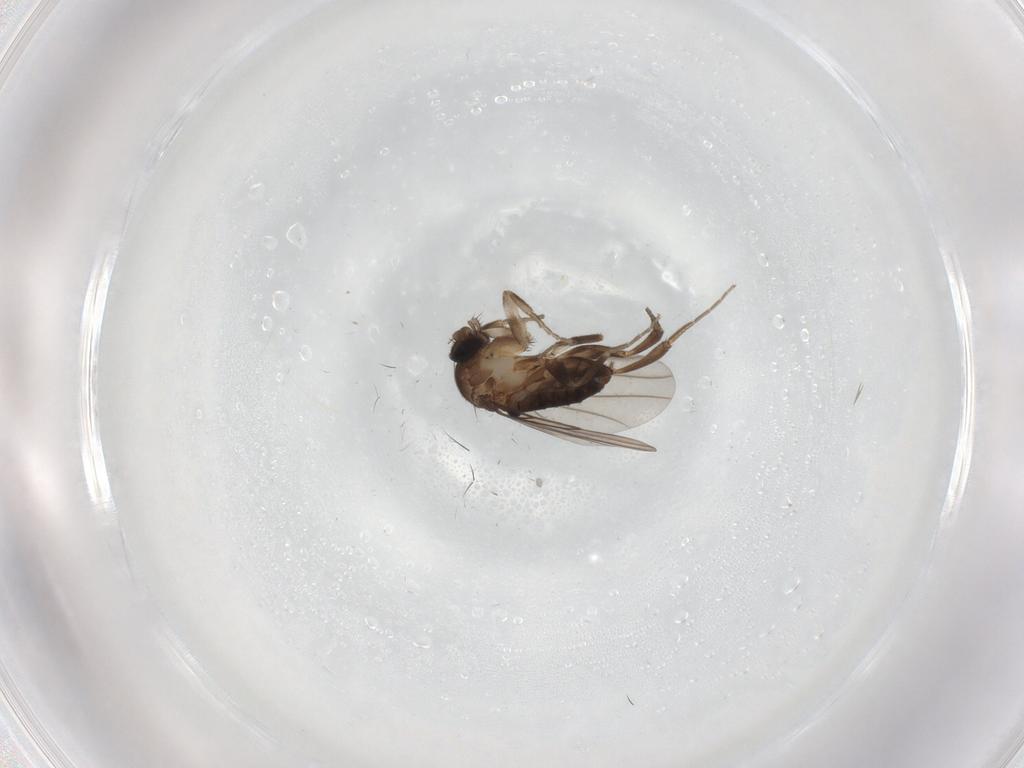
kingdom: Animalia
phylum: Arthropoda
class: Insecta
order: Diptera
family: Phoridae
